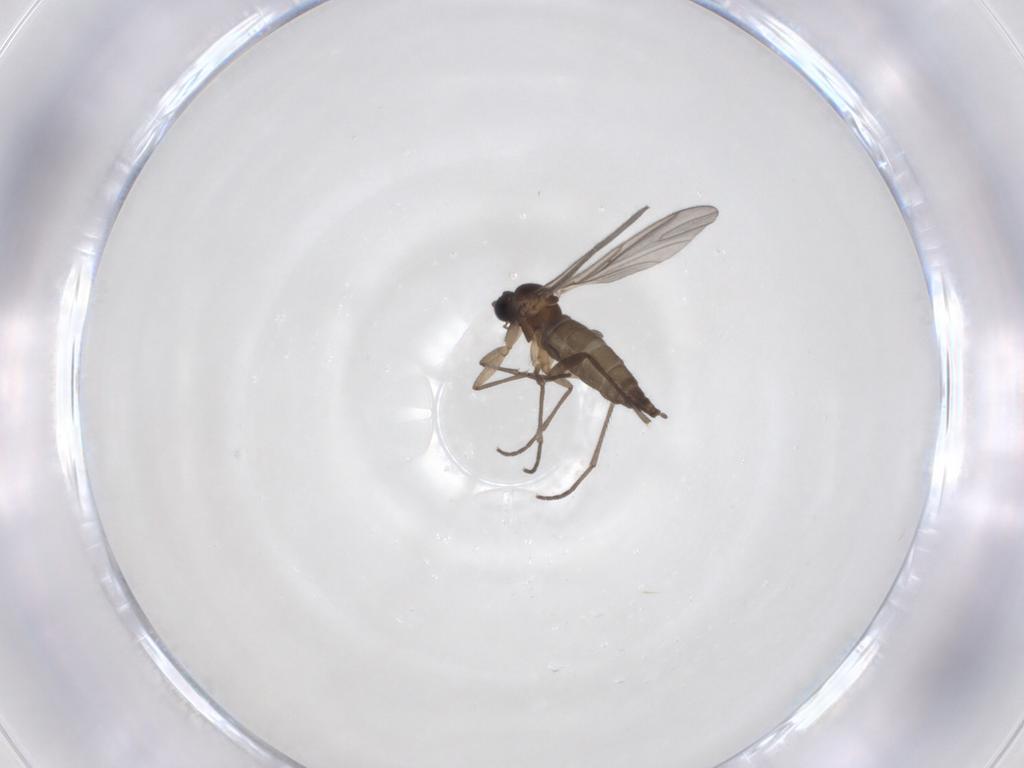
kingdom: Animalia
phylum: Arthropoda
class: Insecta
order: Diptera
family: Sciaridae
